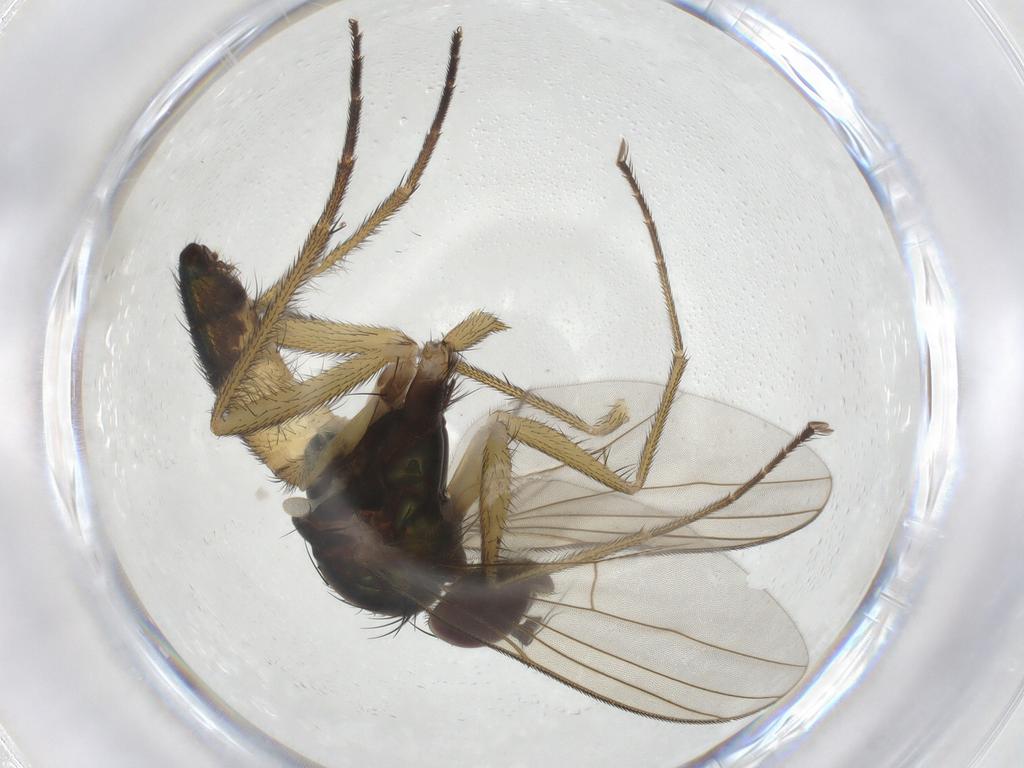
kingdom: Animalia
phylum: Arthropoda
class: Insecta
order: Diptera
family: Dolichopodidae
